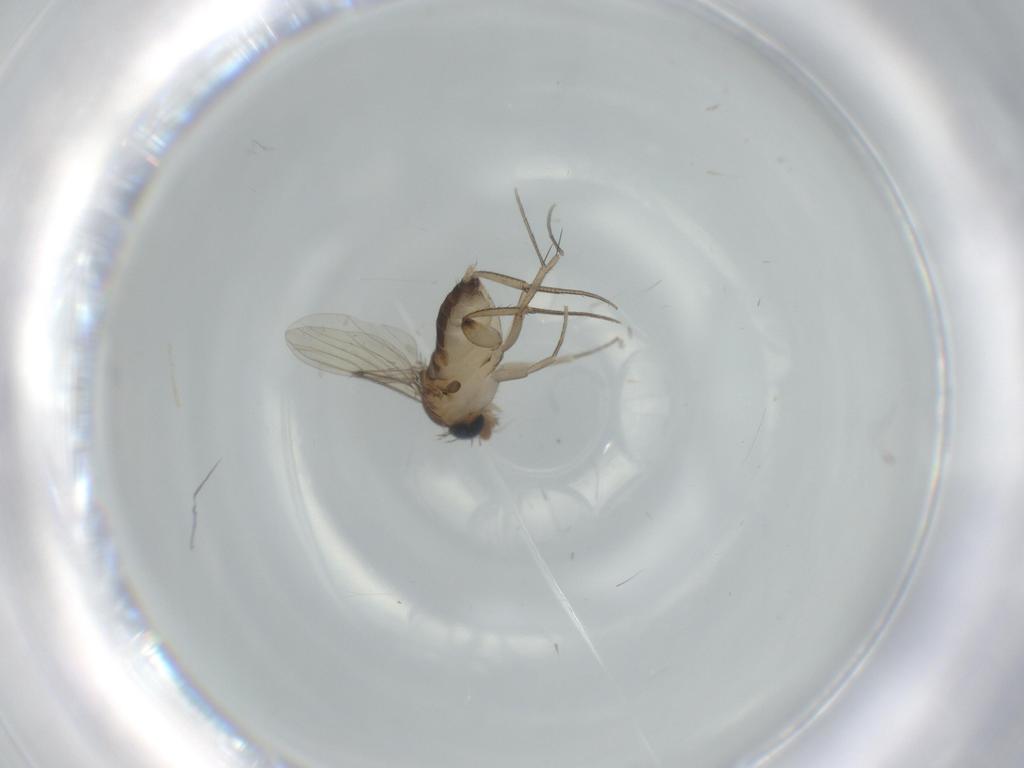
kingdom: Animalia
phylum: Arthropoda
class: Insecta
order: Diptera
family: Phoridae
